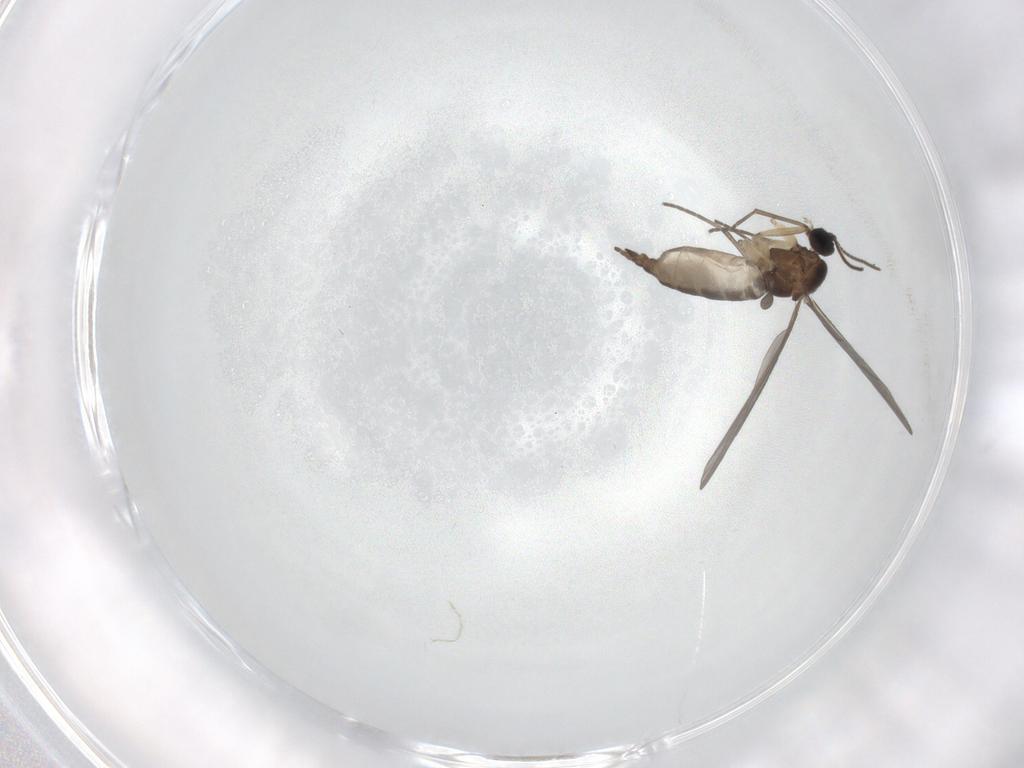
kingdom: Animalia
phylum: Arthropoda
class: Insecta
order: Diptera
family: Sciaridae
